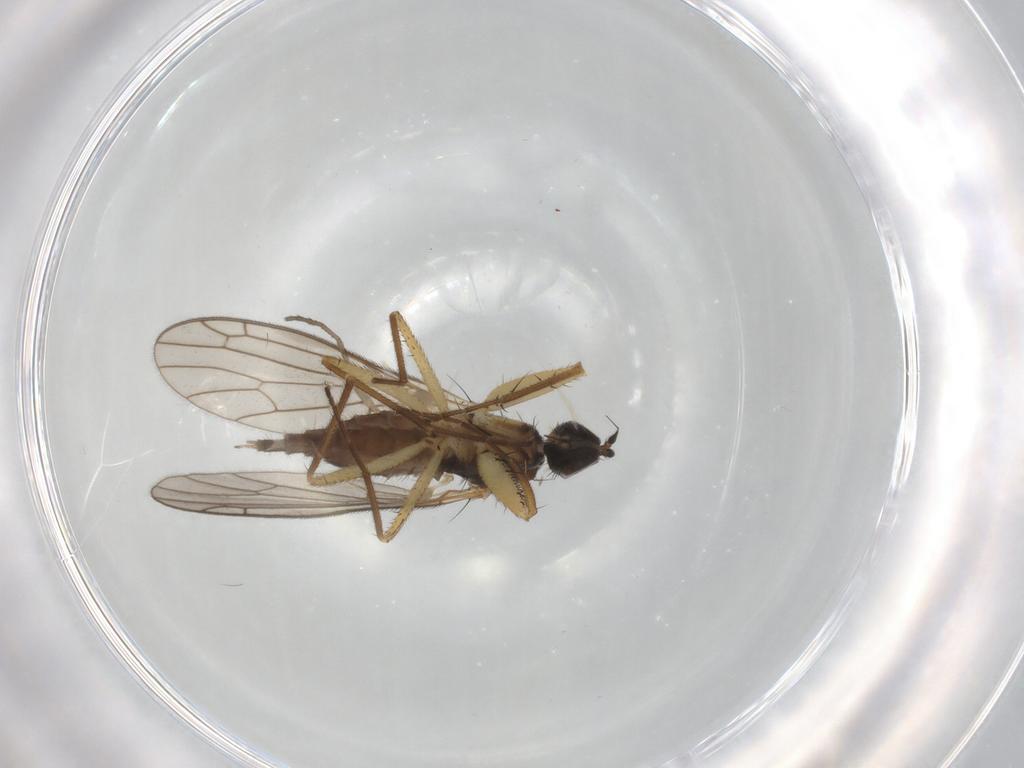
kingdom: Animalia
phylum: Arthropoda
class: Insecta
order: Diptera
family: Empididae
